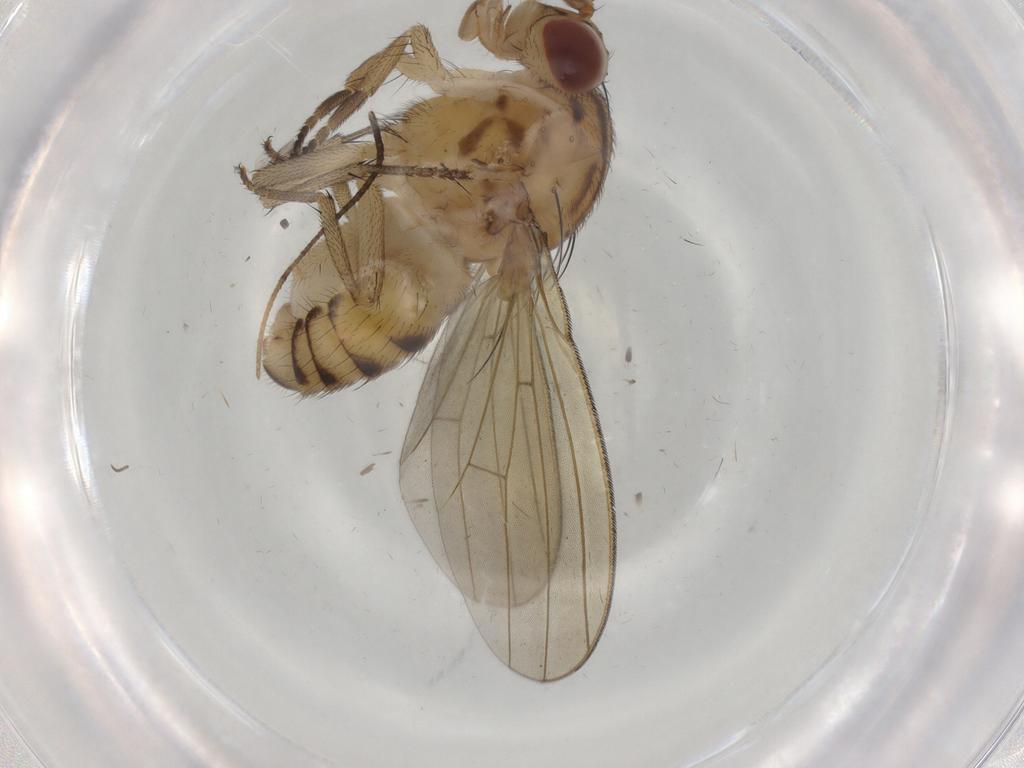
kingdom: Animalia
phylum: Arthropoda
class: Insecta
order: Diptera
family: Cecidomyiidae
